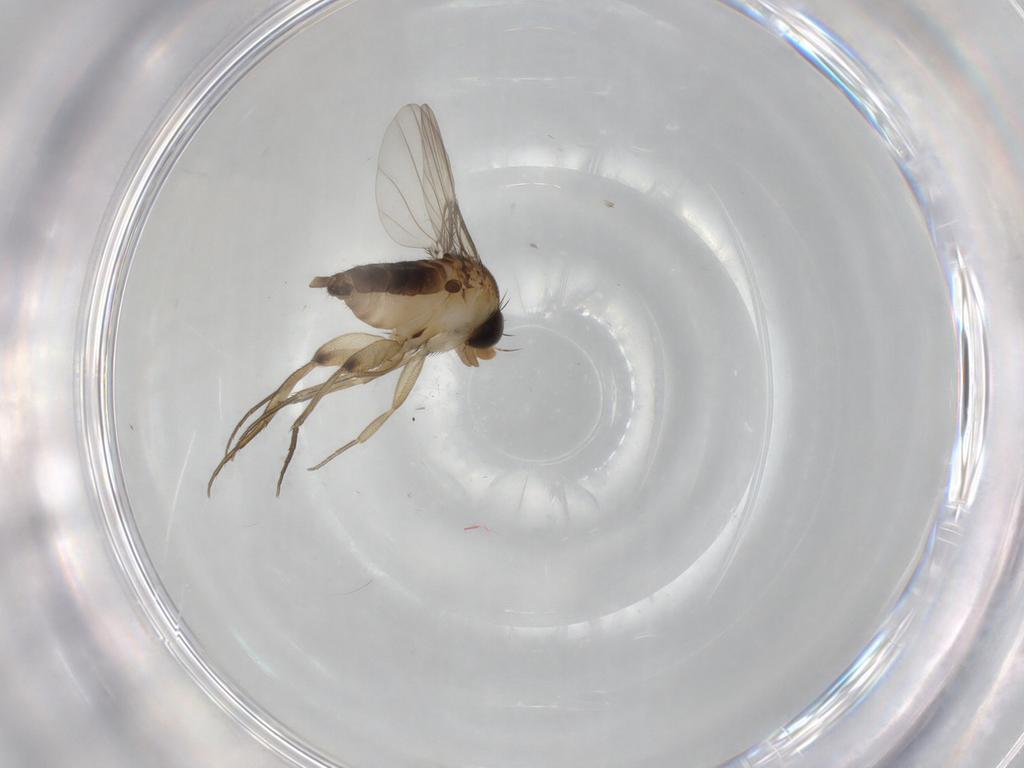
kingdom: Animalia
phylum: Arthropoda
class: Insecta
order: Diptera
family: Phoridae
